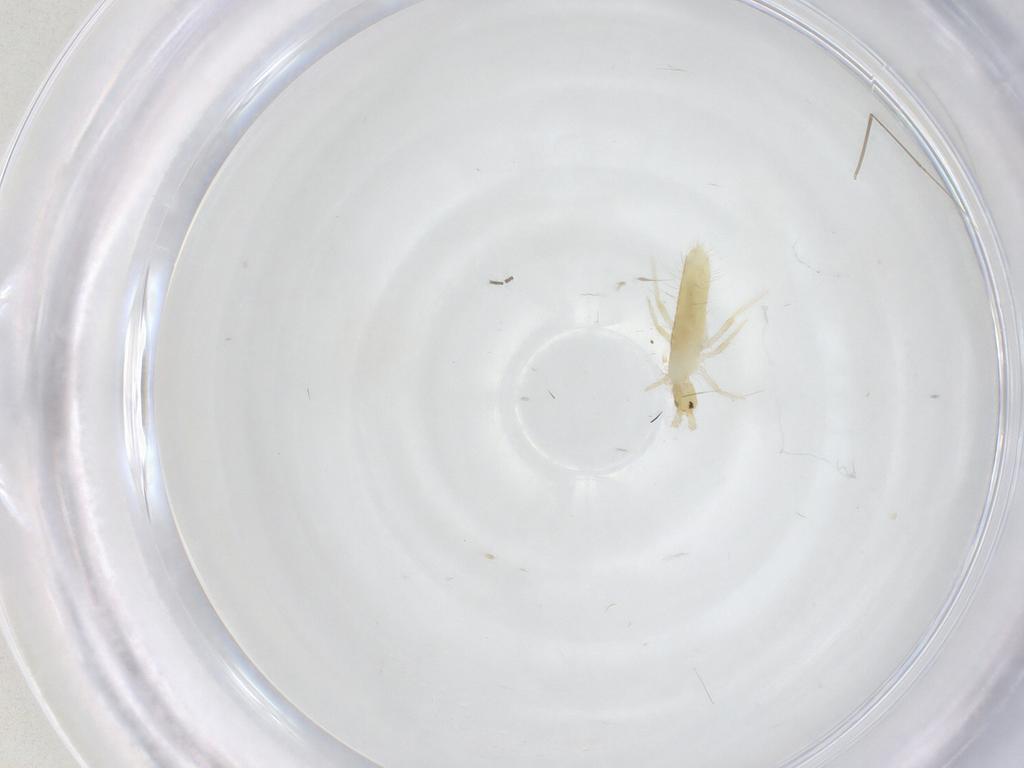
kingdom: Animalia
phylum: Arthropoda
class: Collembola
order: Entomobryomorpha
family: Entomobryidae
